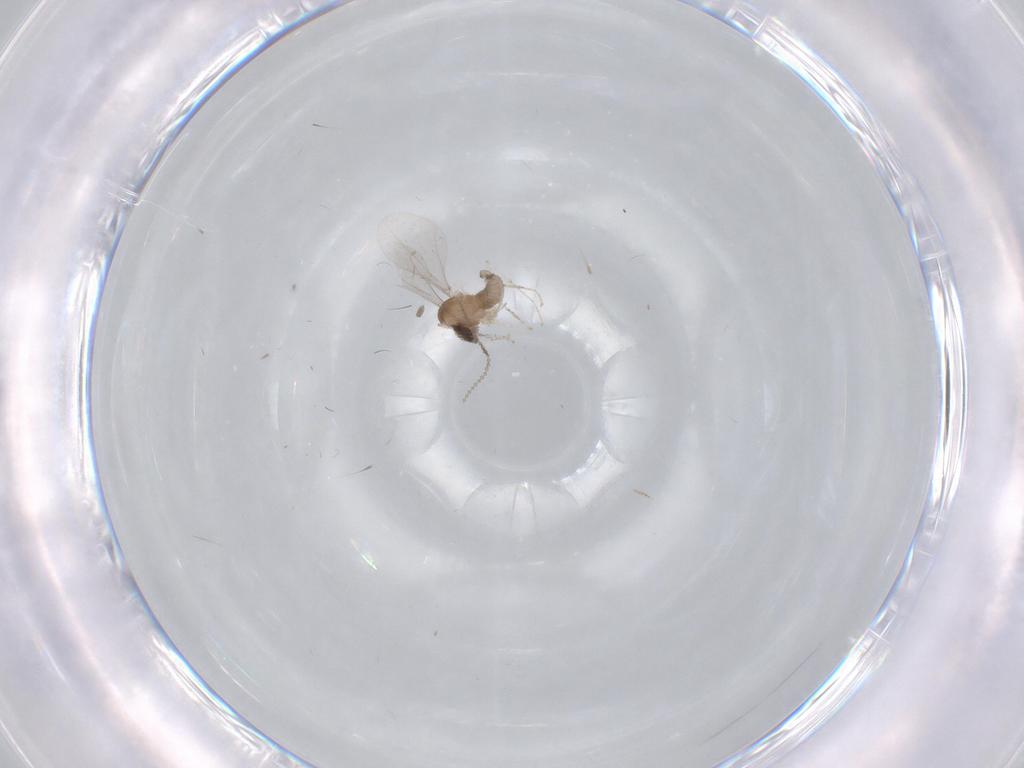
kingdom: Animalia
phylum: Arthropoda
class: Insecta
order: Diptera
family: Cecidomyiidae
